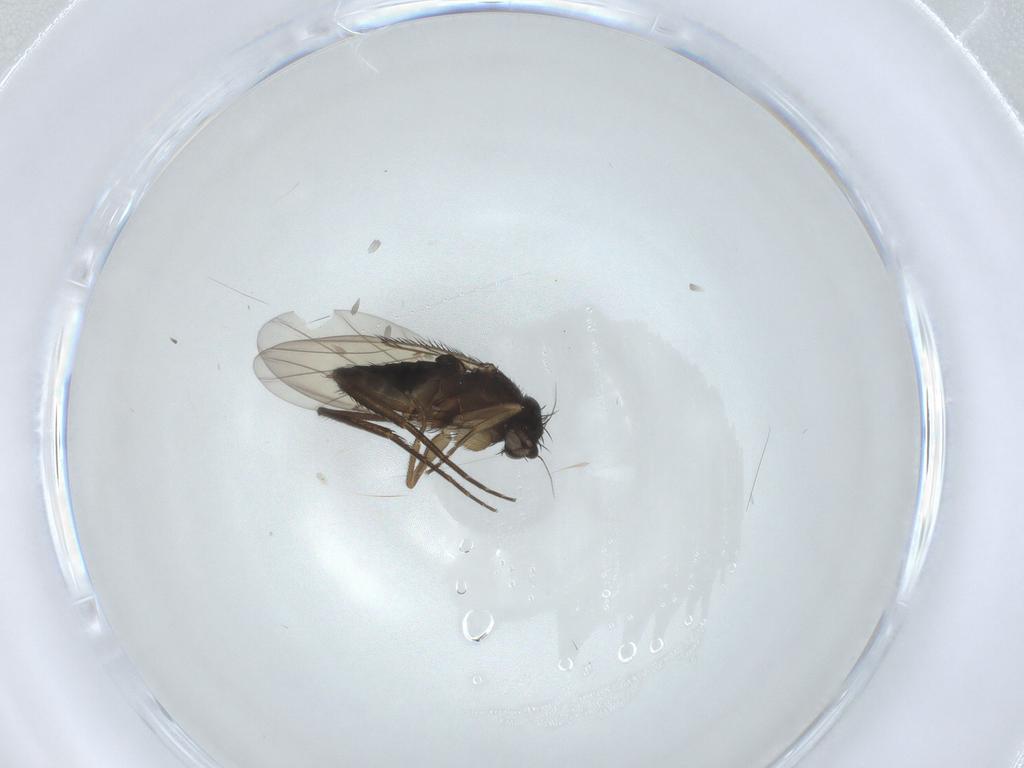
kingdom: Animalia
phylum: Arthropoda
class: Insecta
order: Diptera
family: Phoridae
